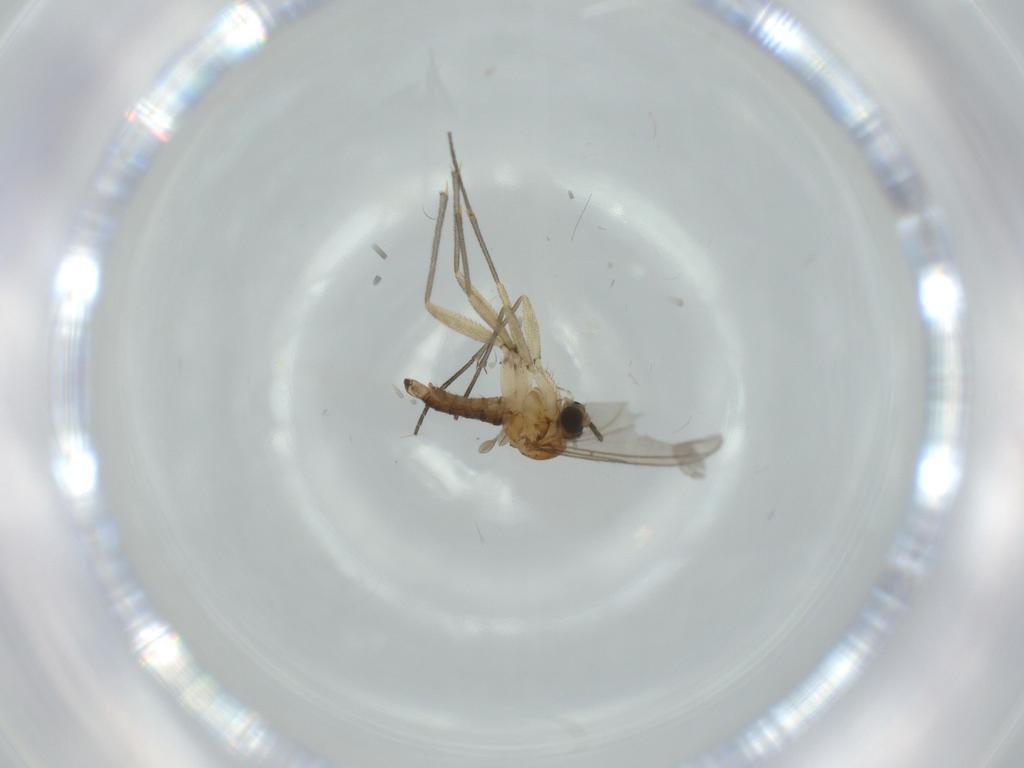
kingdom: Animalia
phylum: Arthropoda
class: Insecta
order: Diptera
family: Sciaridae
